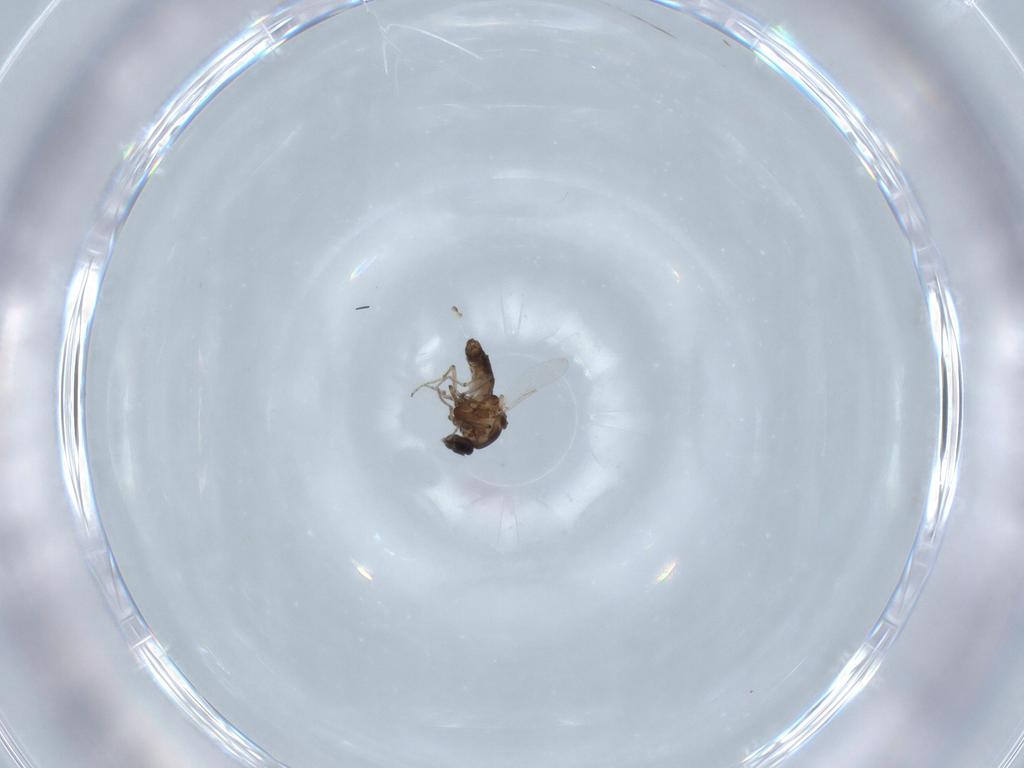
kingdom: Animalia
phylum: Arthropoda
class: Insecta
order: Diptera
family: Ceratopogonidae
